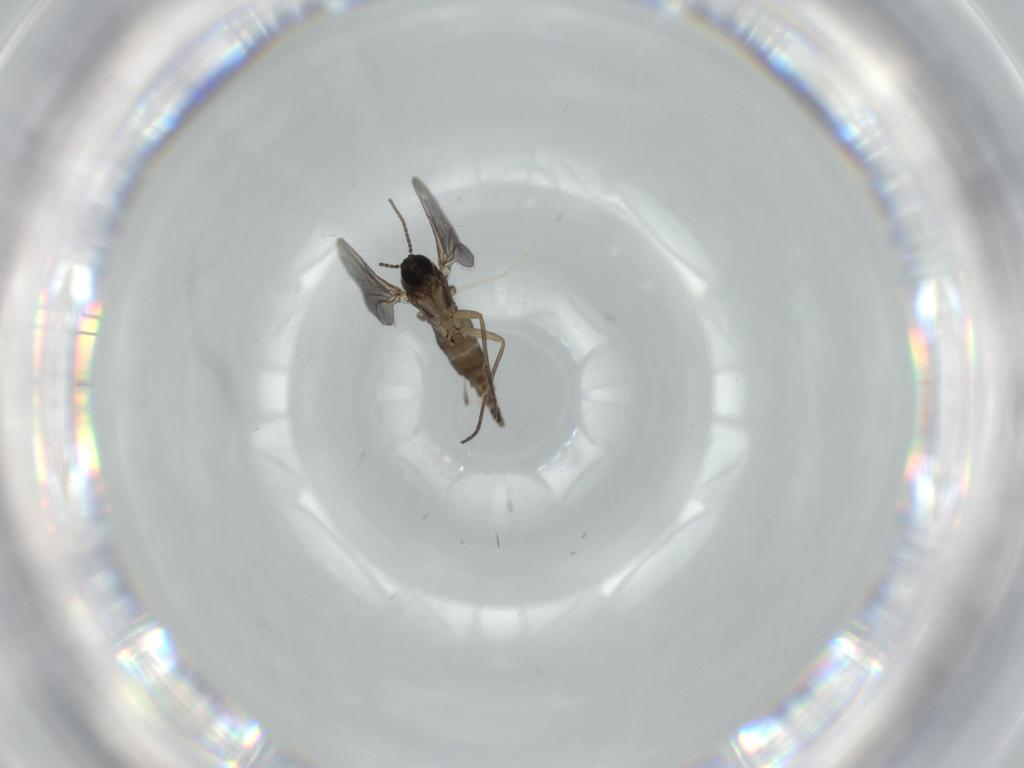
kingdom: Animalia
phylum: Arthropoda
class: Insecta
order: Diptera
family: Sciaridae
